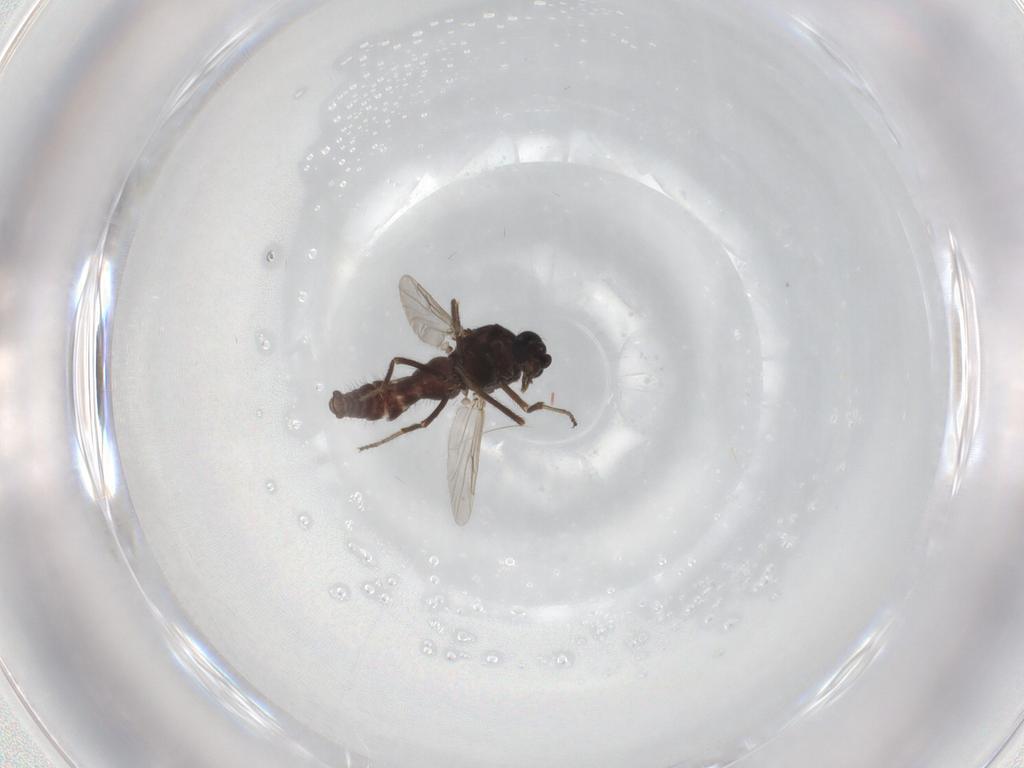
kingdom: Animalia
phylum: Arthropoda
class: Insecta
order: Diptera
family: Ceratopogonidae
